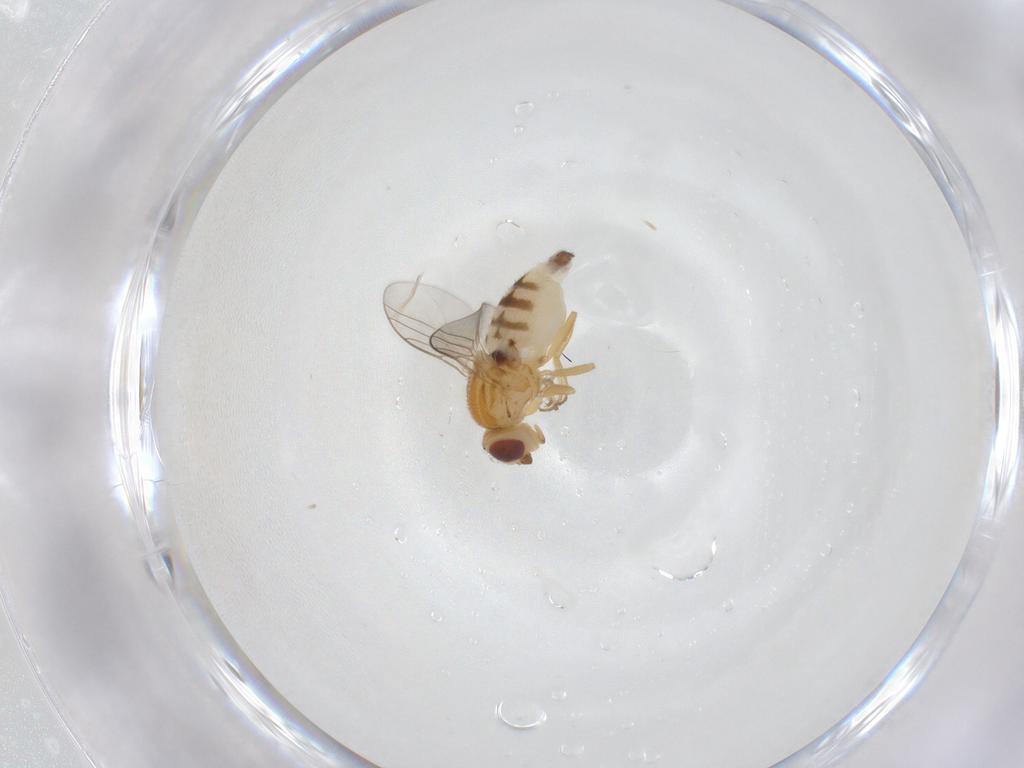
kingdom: Animalia
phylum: Arthropoda
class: Insecta
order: Diptera
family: Chloropidae
